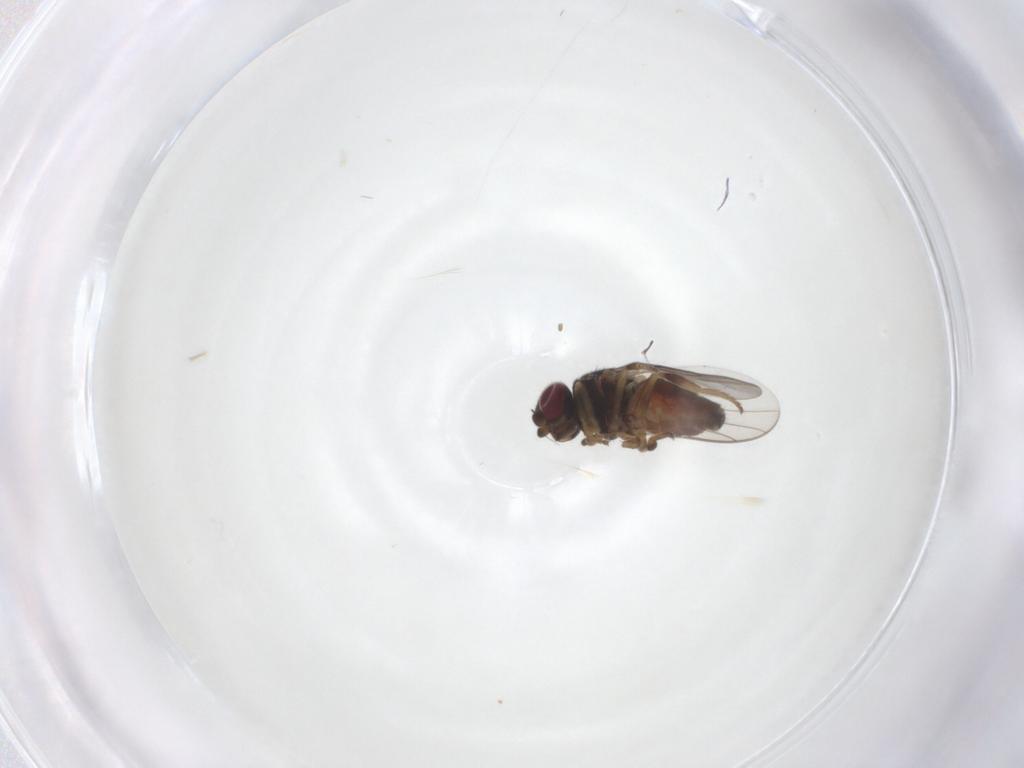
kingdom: Animalia
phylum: Arthropoda
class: Insecta
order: Diptera
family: Chloropidae
